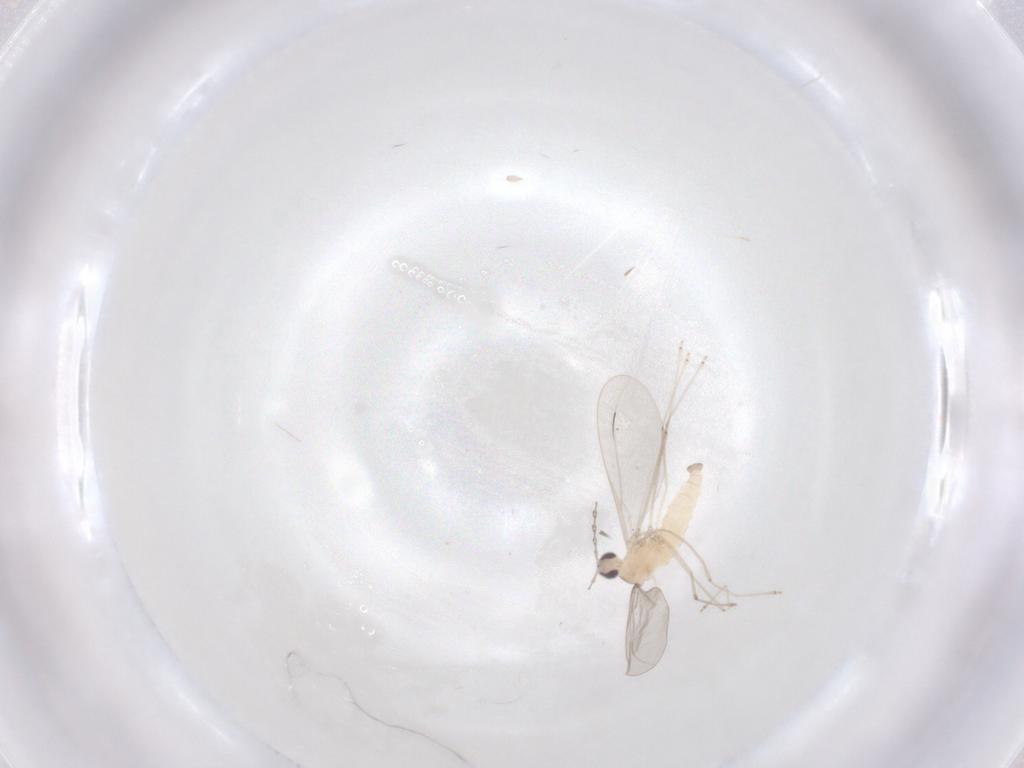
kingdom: Animalia
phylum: Arthropoda
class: Insecta
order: Diptera
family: Cecidomyiidae
